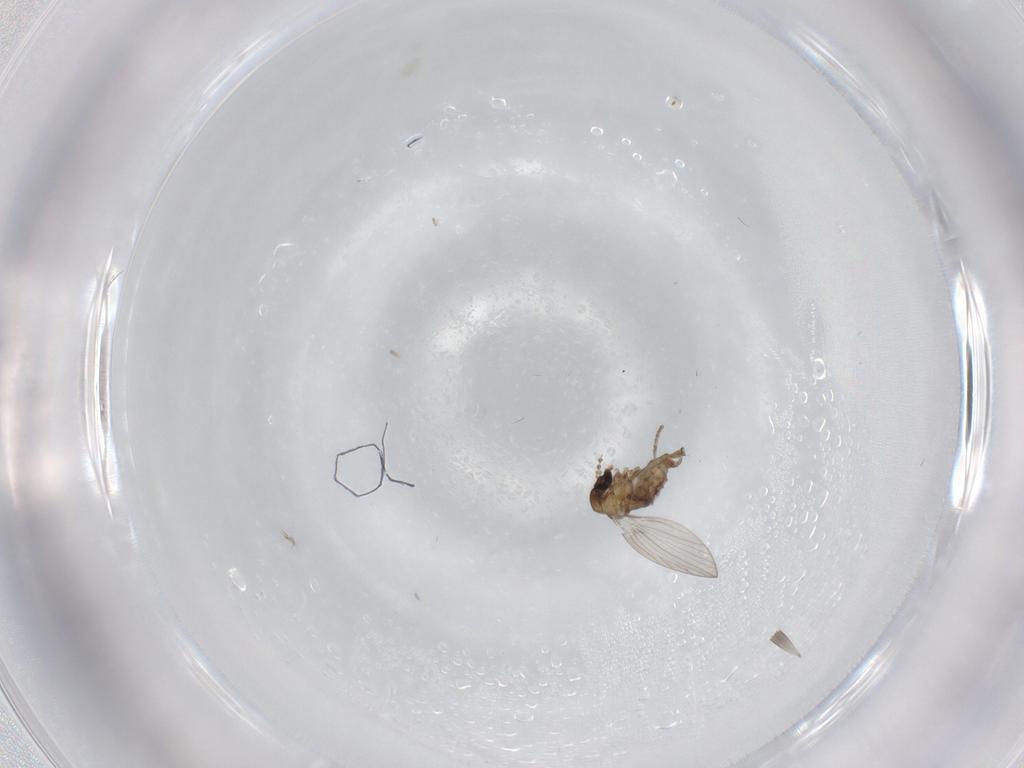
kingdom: Animalia
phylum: Arthropoda
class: Insecta
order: Diptera
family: Psychodidae
